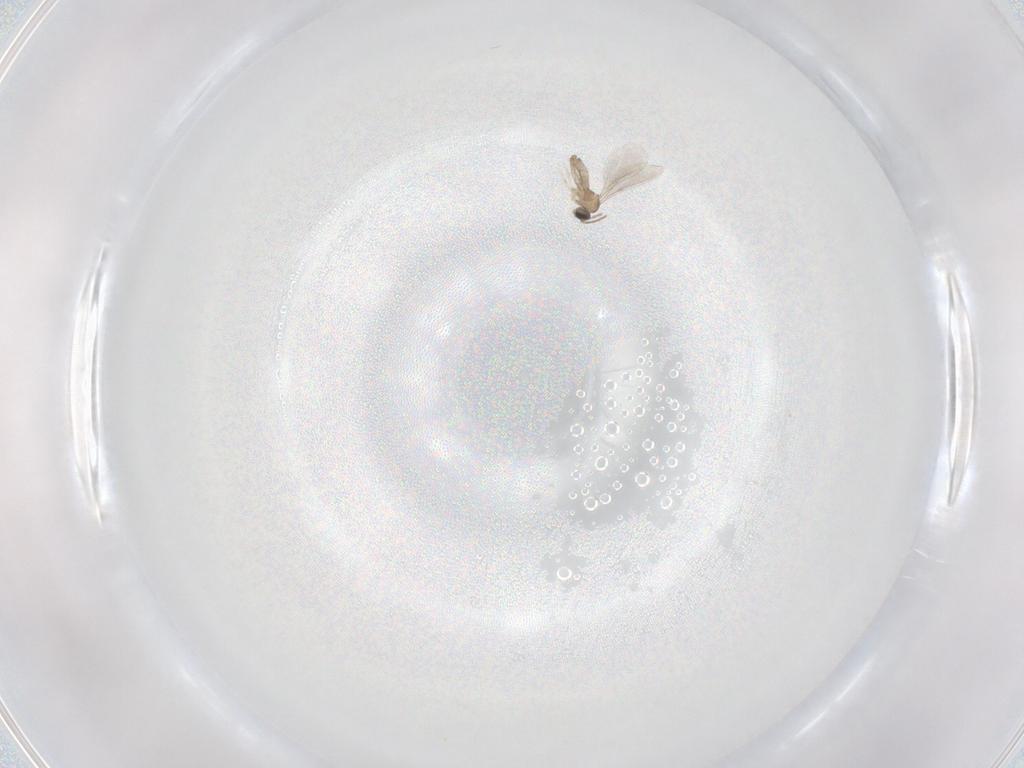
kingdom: Animalia
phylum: Arthropoda
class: Insecta
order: Diptera
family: Cecidomyiidae
